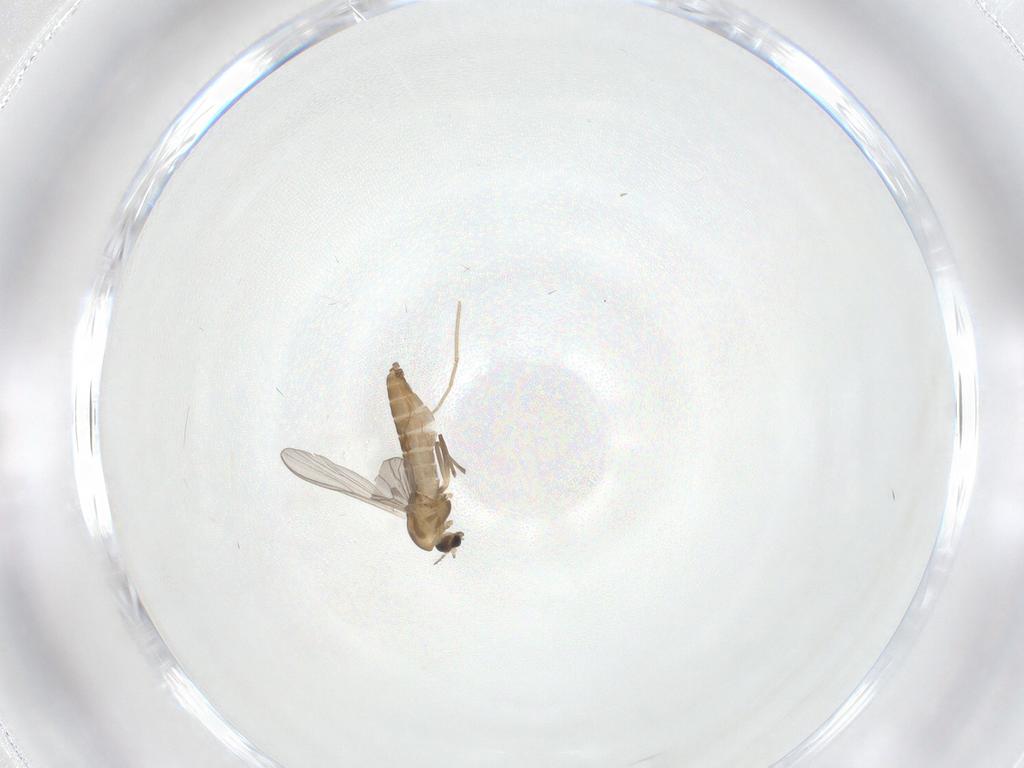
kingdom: Animalia
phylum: Arthropoda
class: Insecta
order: Diptera
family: Chironomidae
